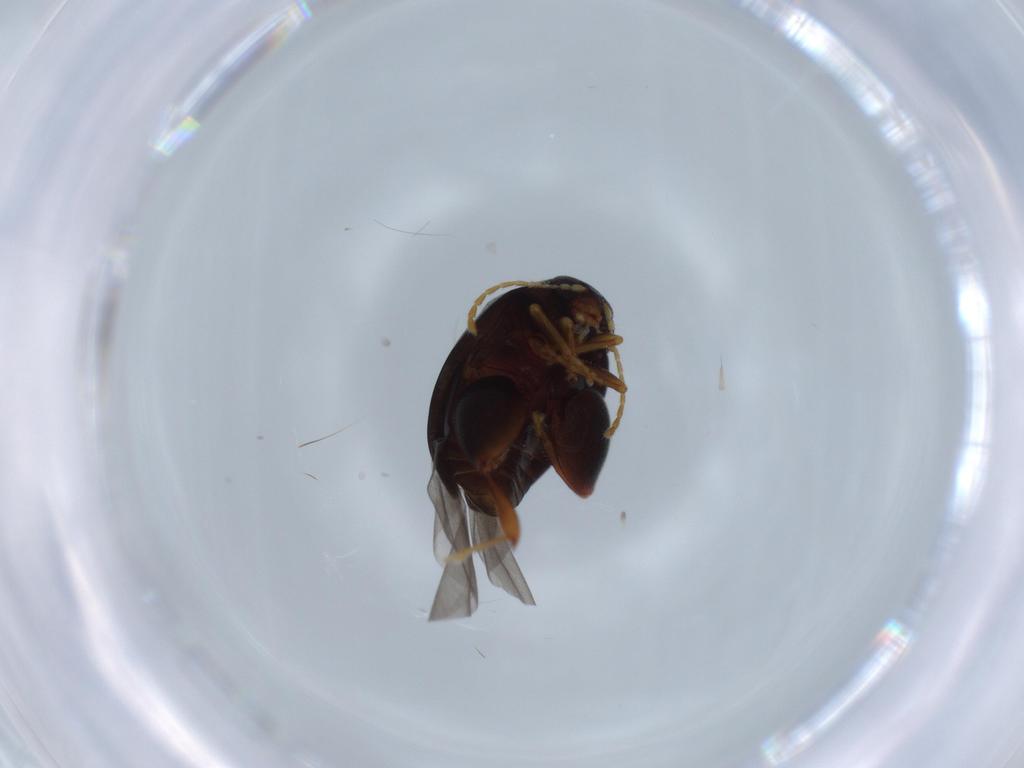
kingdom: Animalia
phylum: Arthropoda
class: Insecta
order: Coleoptera
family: Chrysomelidae
